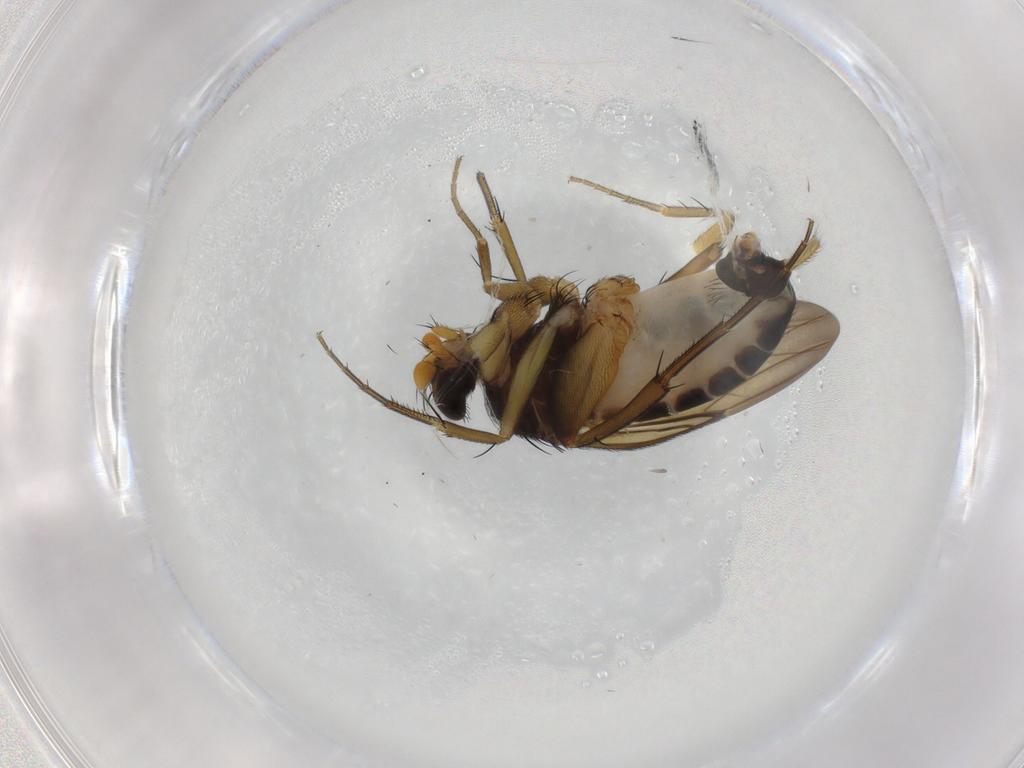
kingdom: Animalia
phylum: Arthropoda
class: Insecta
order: Diptera
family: Phoridae
